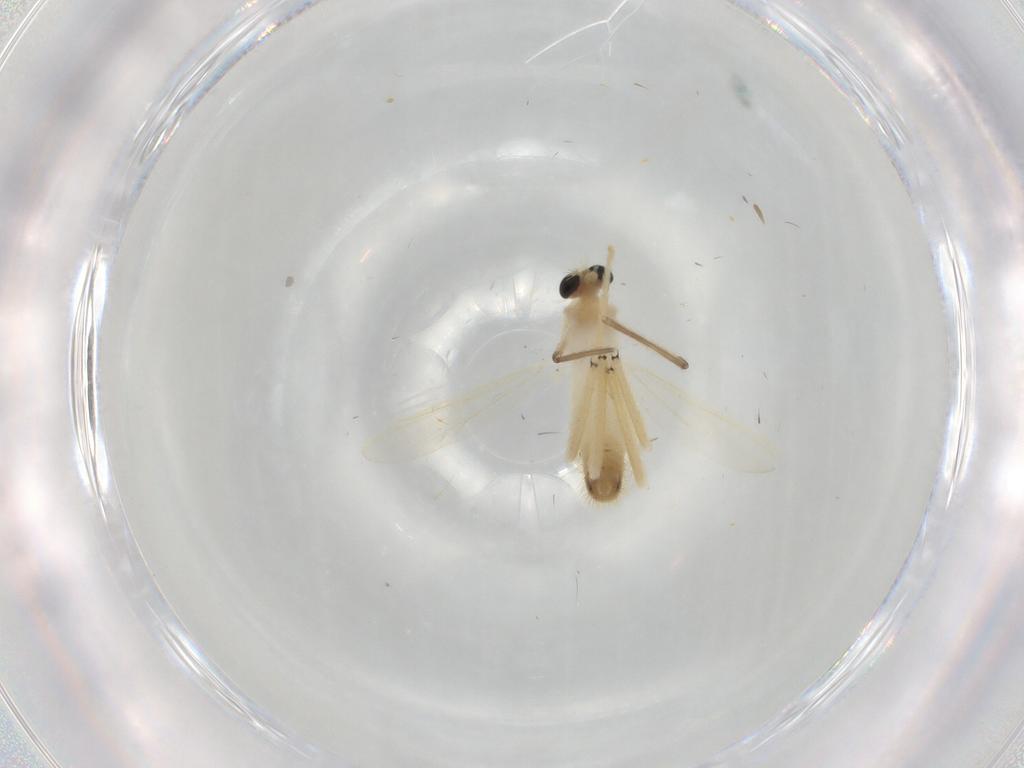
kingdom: Animalia
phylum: Arthropoda
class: Insecta
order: Diptera
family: Chironomidae
